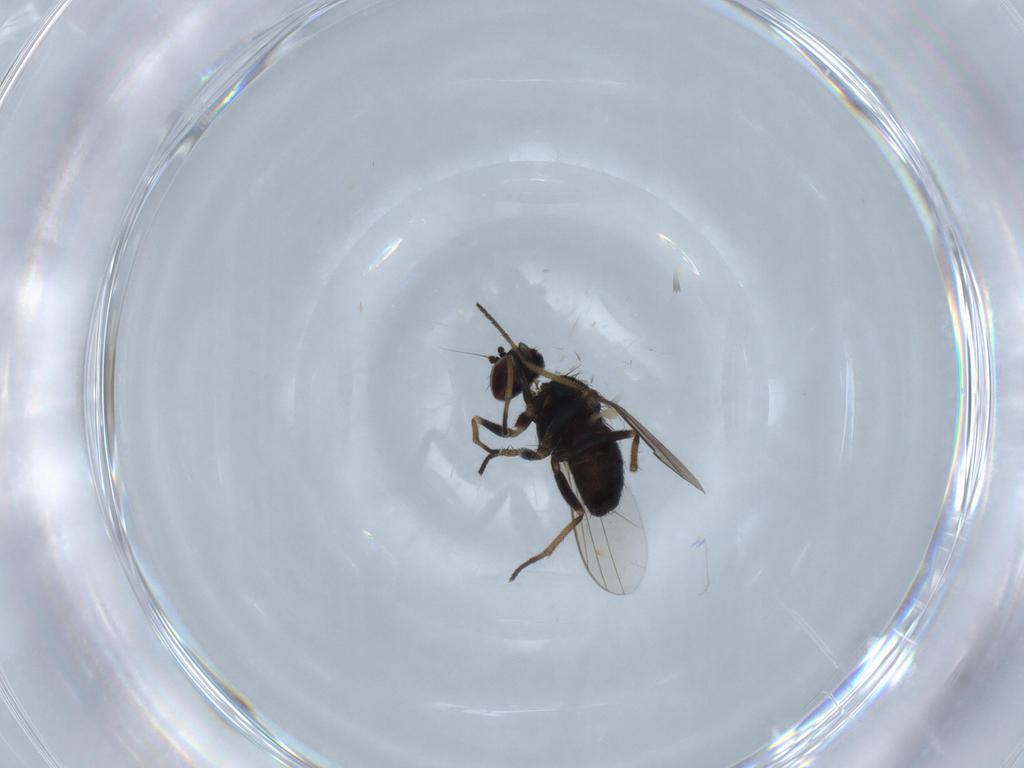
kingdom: Animalia
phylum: Arthropoda
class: Insecta
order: Diptera
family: Dolichopodidae
